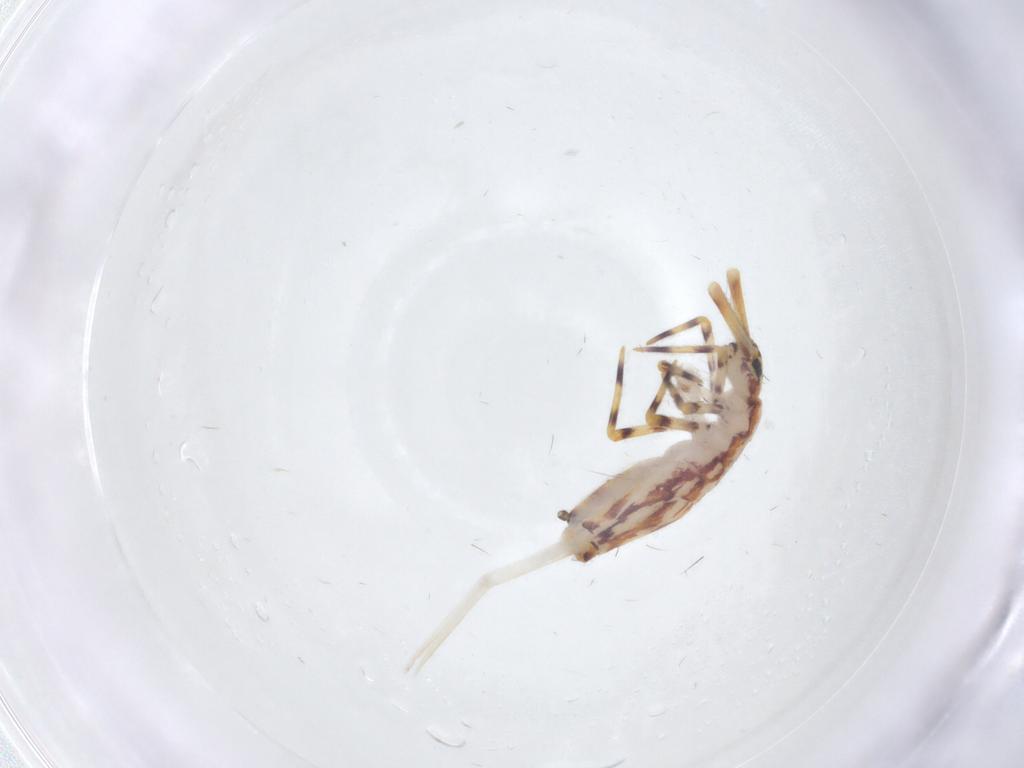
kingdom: Animalia
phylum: Arthropoda
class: Collembola
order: Entomobryomorpha
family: Entomobryidae
